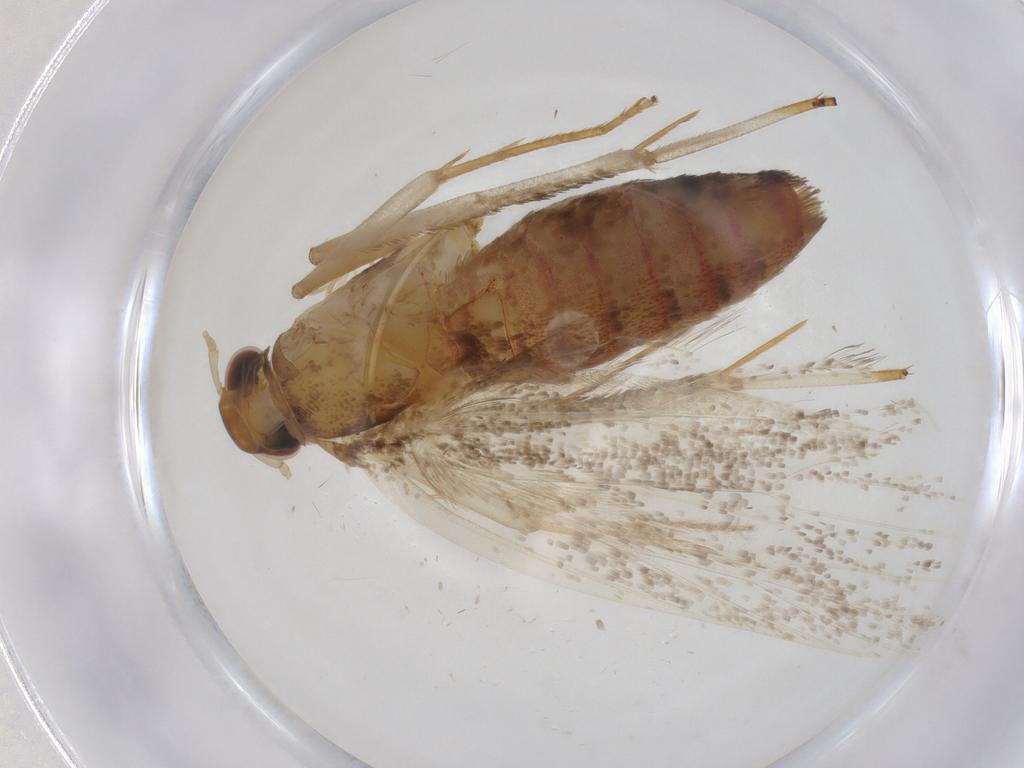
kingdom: Animalia
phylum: Arthropoda
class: Insecta
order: Lepidoptera
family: Lecithoceridae
